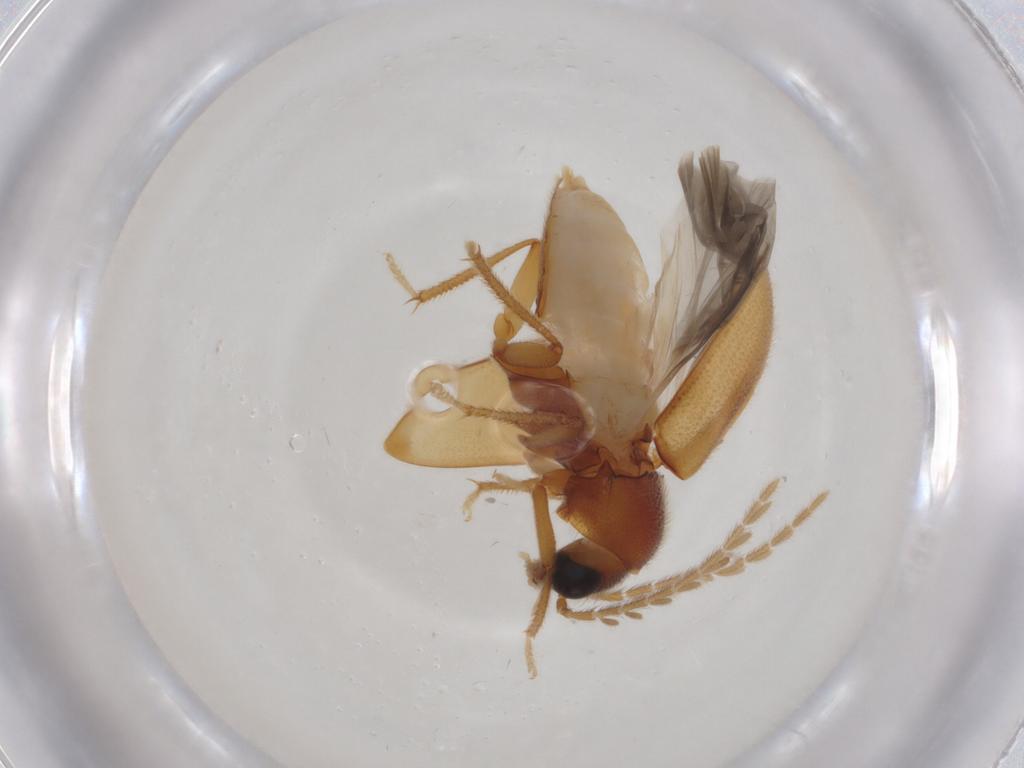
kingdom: Animalia
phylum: Arthropoda
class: Insecta
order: Coleoptera
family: Ptilodactylidae
